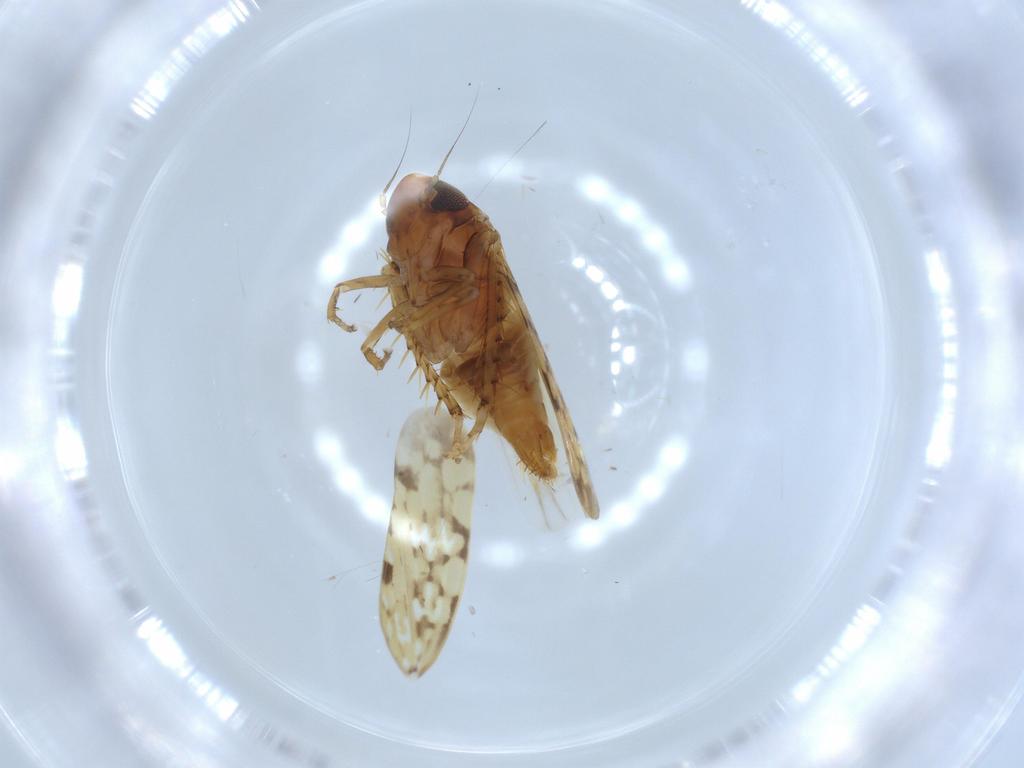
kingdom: Animalia
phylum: Arthropoda
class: Insecta
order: Hemiptera
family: Cicadellidae
